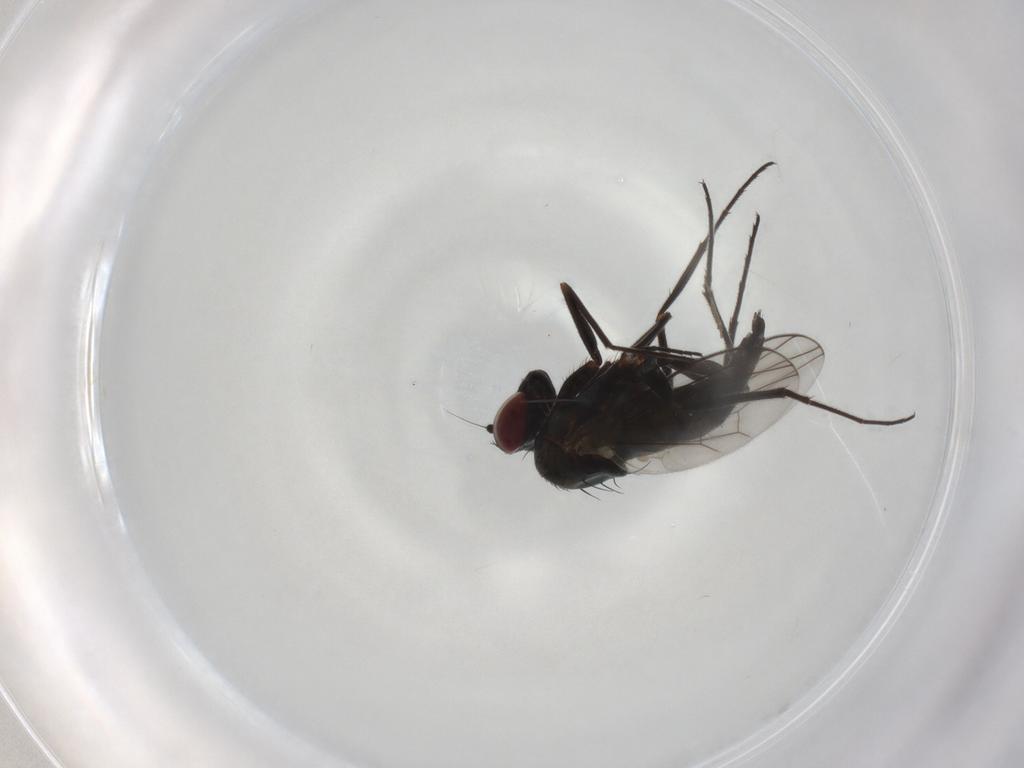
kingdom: Animalia
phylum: Arthropoda
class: Insecta
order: Diptera
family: Dolichopodidae
